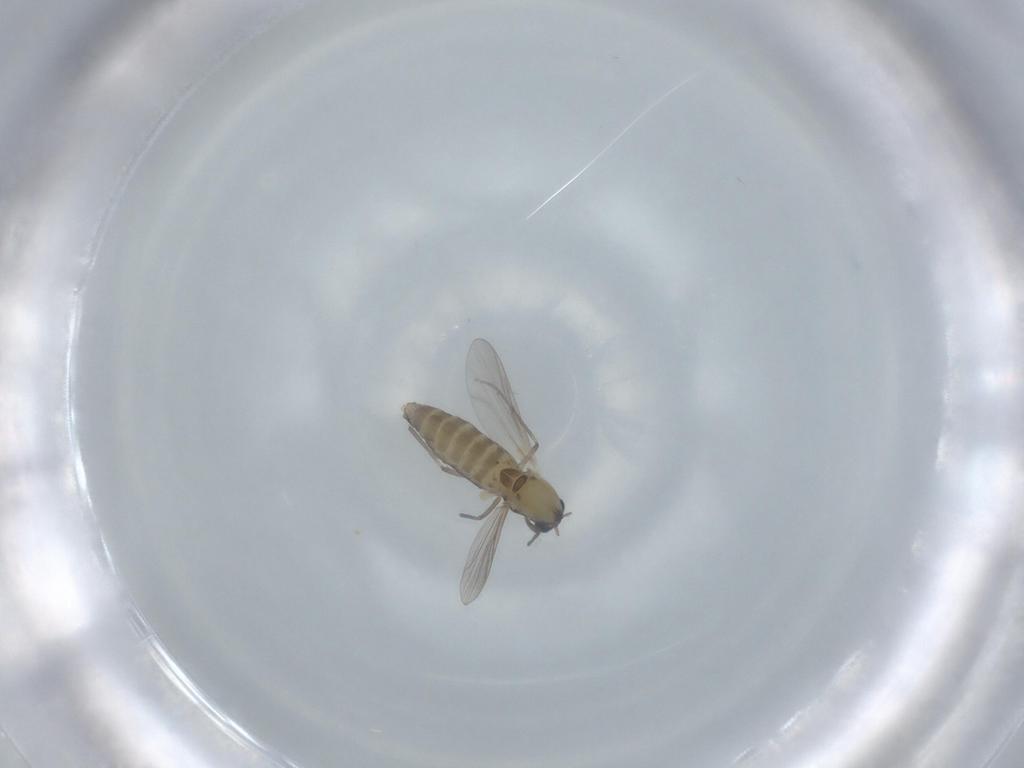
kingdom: Animalia
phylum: Arthropoda
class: Insecta
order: Diptera
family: Chironomidae
